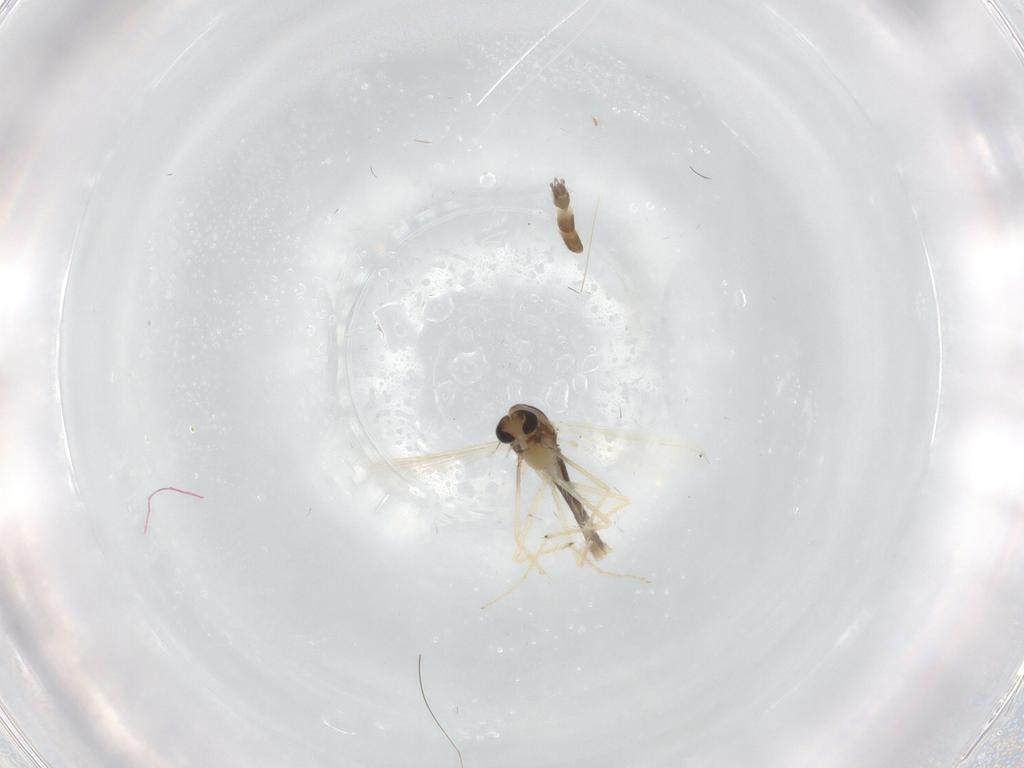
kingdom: Animalia
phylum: Arthropoda
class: Insecta
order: Diptera
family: Chironomidae
